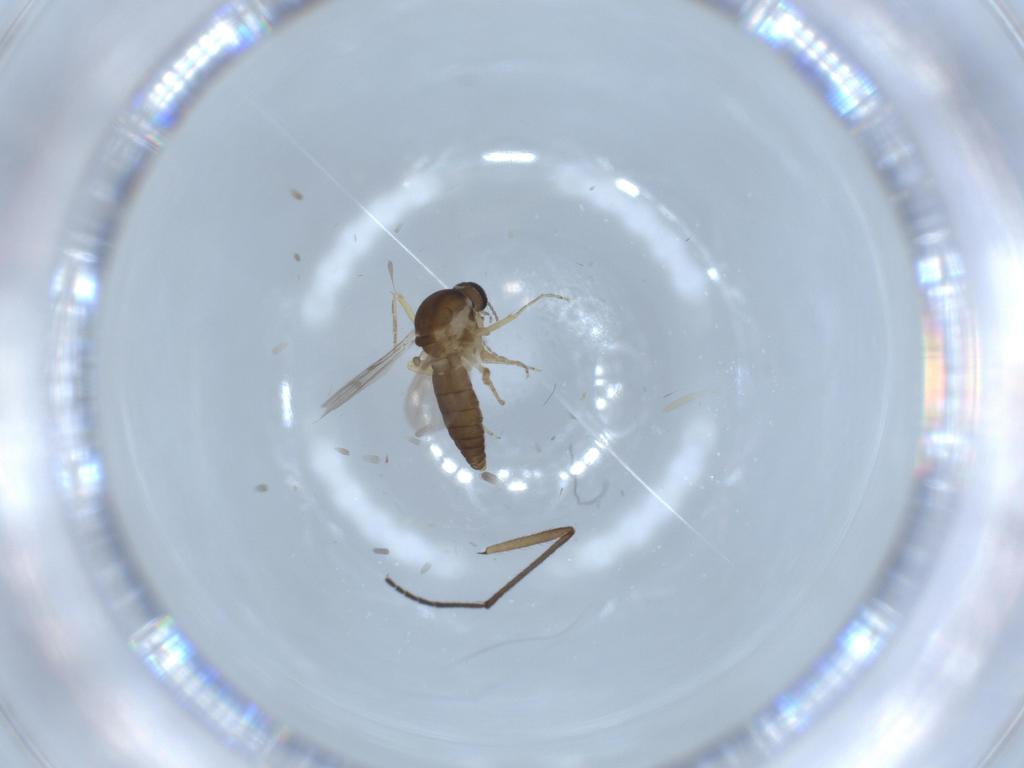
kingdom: Animalia
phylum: Arthropoda
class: Insecta
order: Diptera
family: Ceratopogonidae
